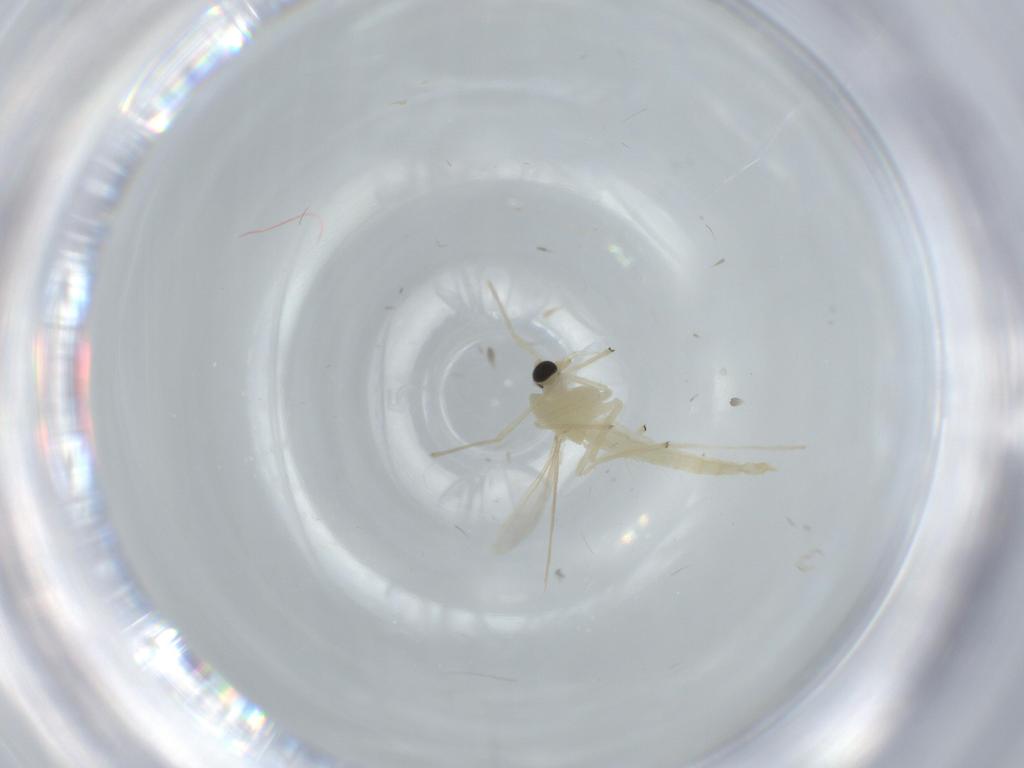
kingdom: Animalia
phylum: Arthropoda
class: Insecta
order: Diptera
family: Chironomidae
